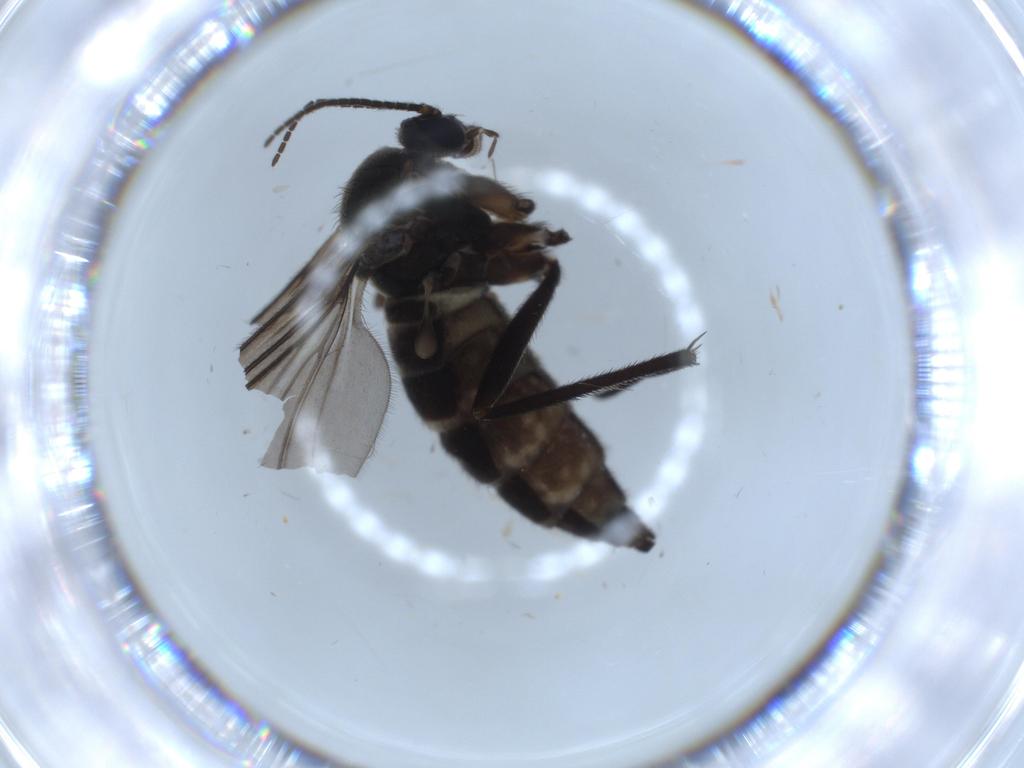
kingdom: Animalia
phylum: Arthropoda
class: Insecta
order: Diptera
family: Sciaridae
